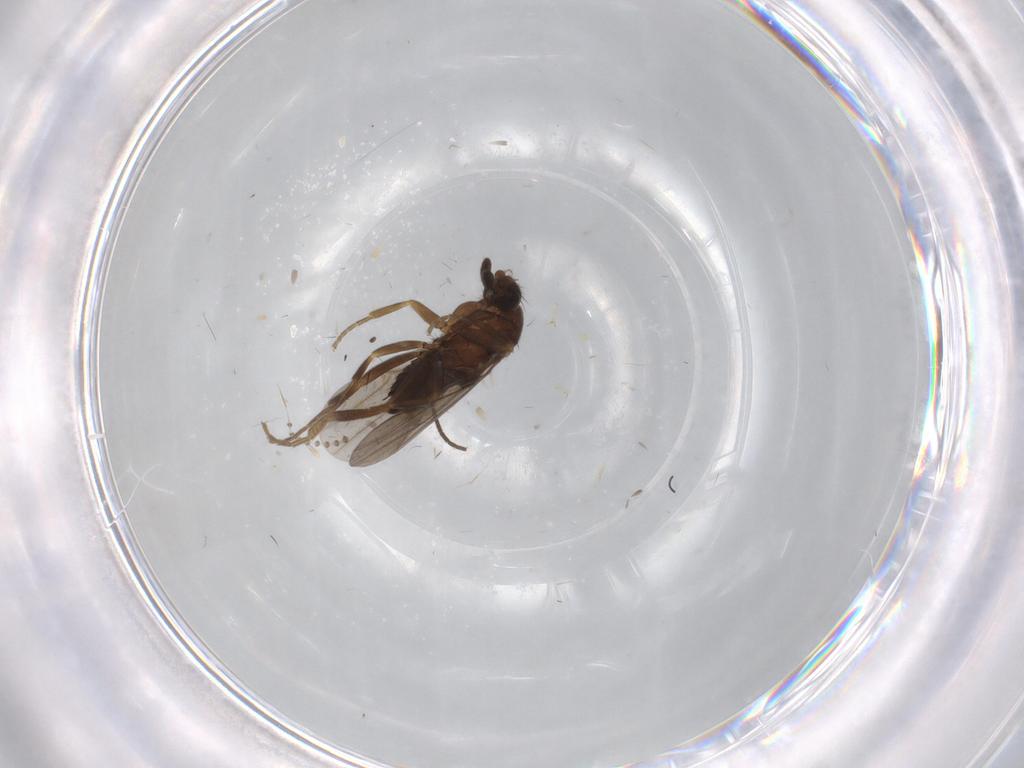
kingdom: Animalia
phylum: Arthropoda
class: Insecta
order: Diptera
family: Phoridae
